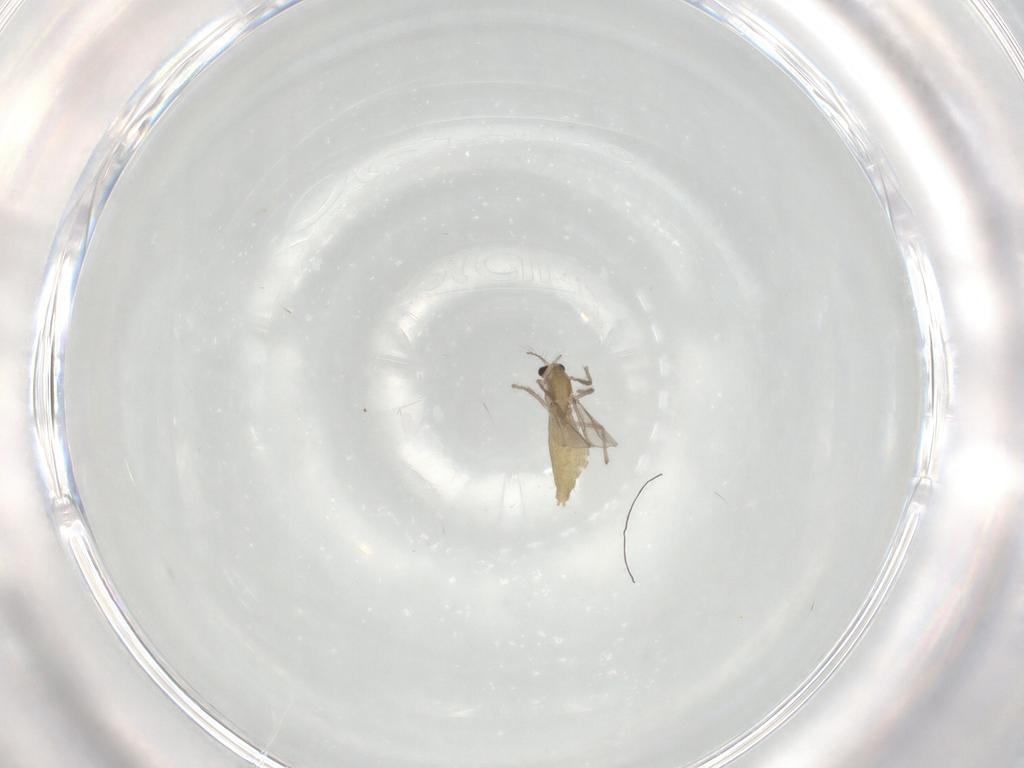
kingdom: Animalia
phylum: Arthropoda
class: Insecta
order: Diptera
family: Chironomidae
